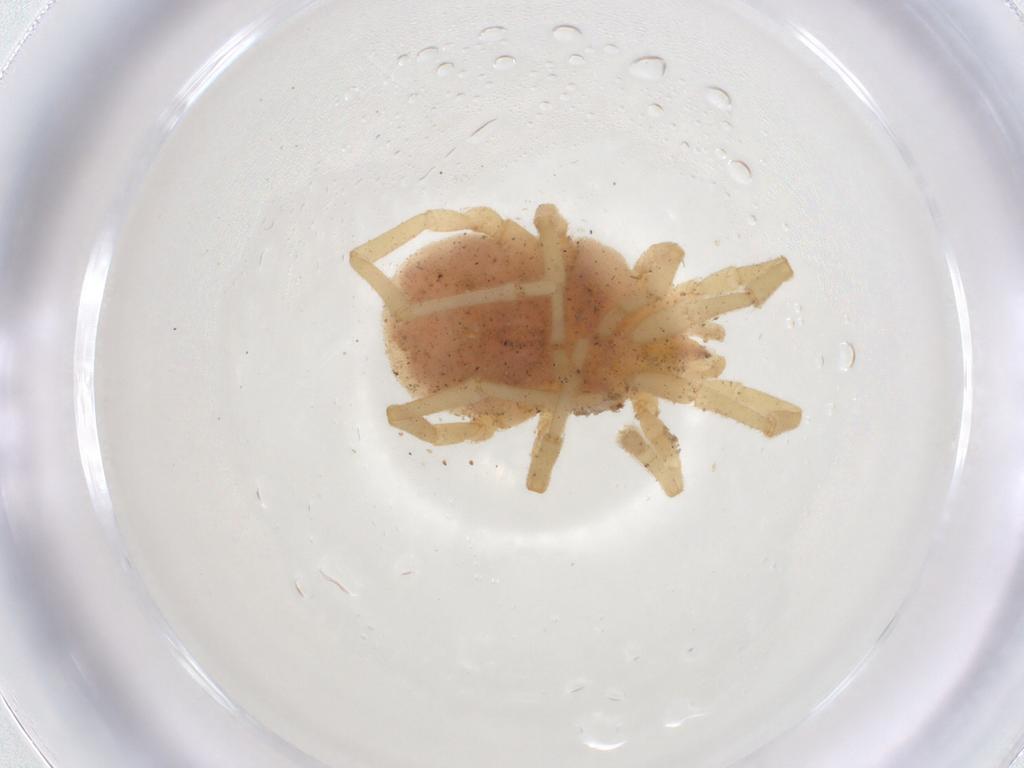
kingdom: Animalia
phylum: Arthropoda
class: Arachnida
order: Trombidiformes
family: Erythraeidae
